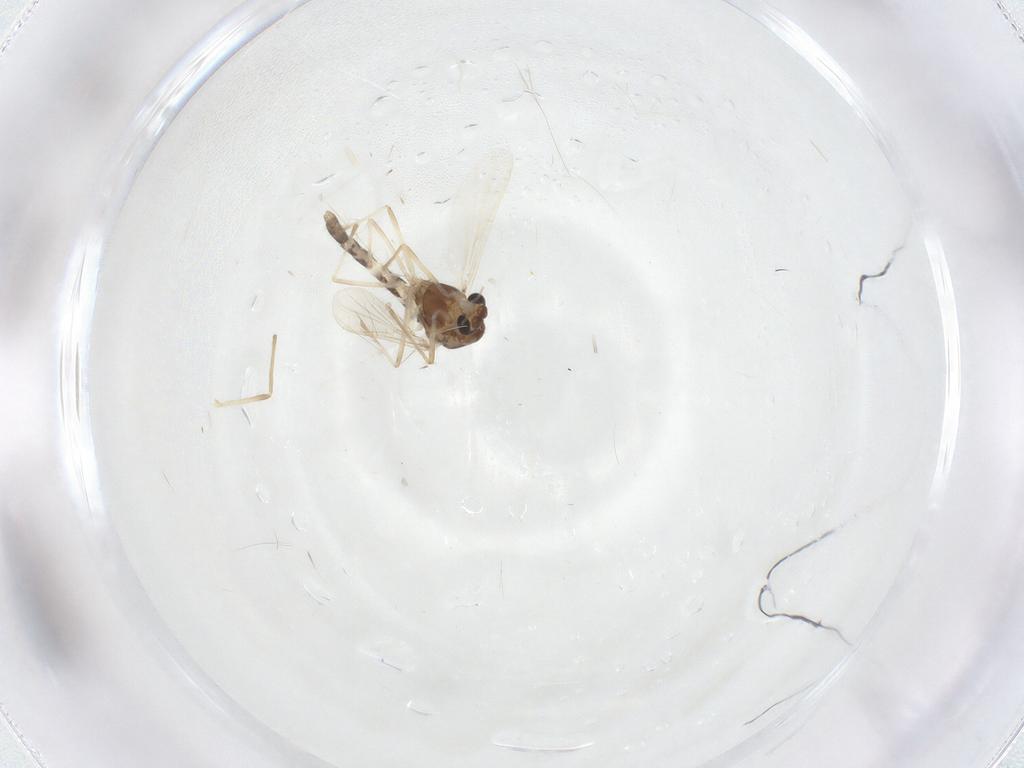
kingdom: Animalia
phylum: Arthropoda
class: Insecta
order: Diptera
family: Chironomidae
